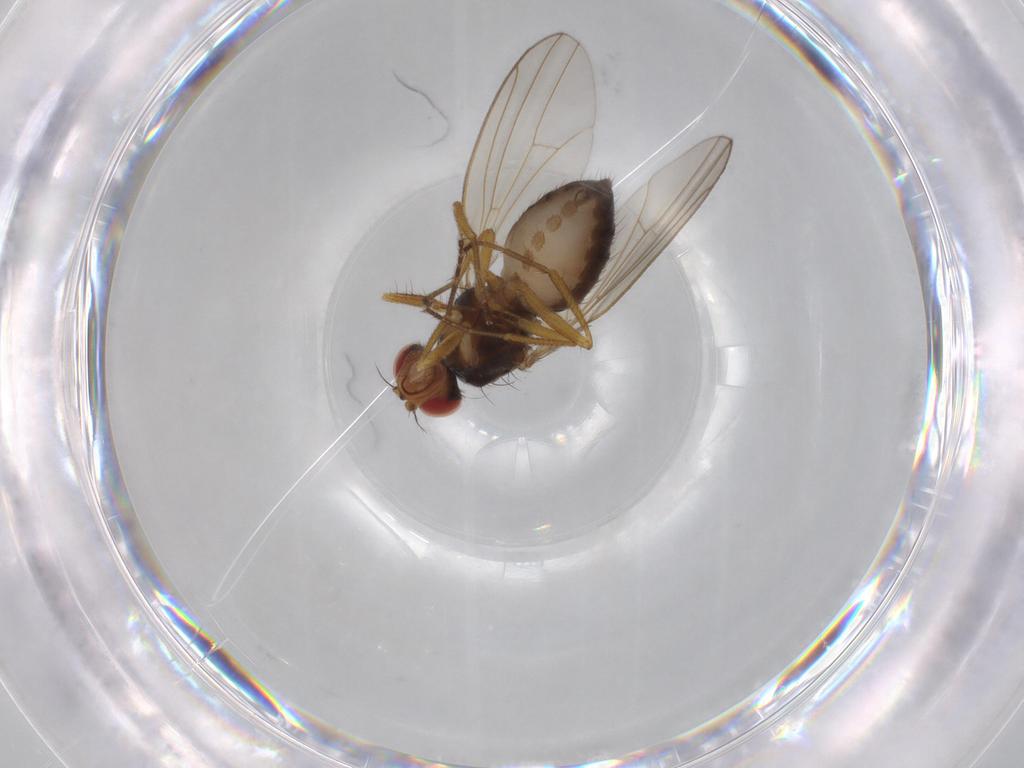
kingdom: Animalia
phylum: Arthropoda
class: Insecta
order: Diptera
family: Drosophilidae
